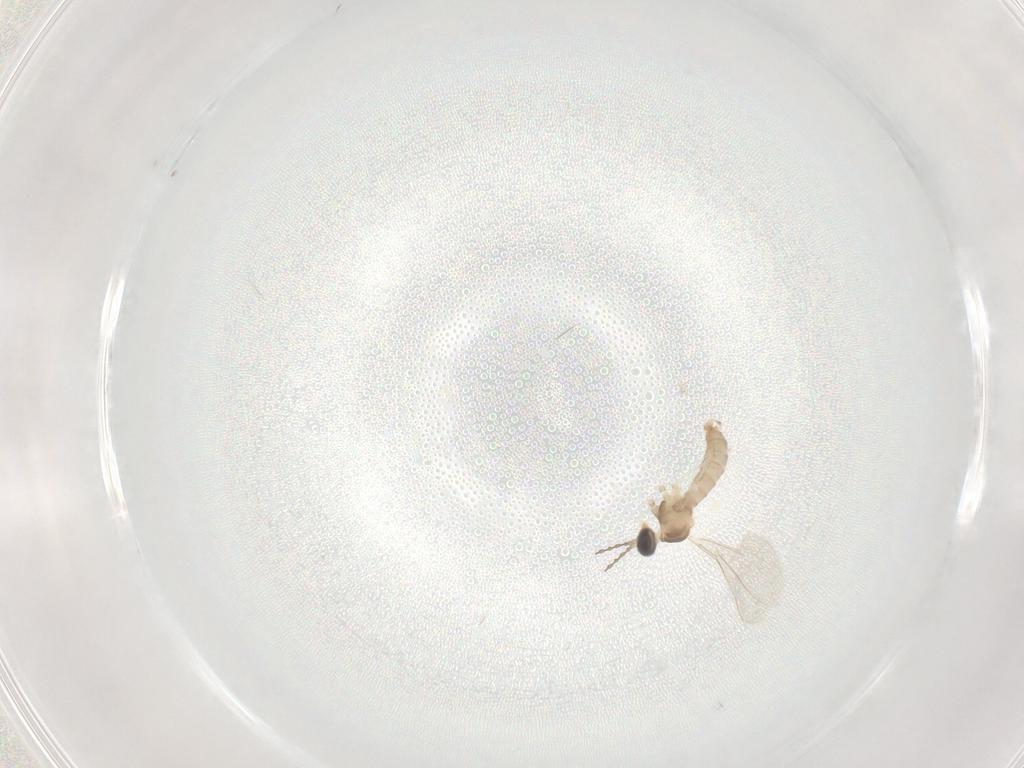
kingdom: Animalia
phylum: Arthropoda
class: Insecta
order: Diptera
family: Cecidomyiidae
